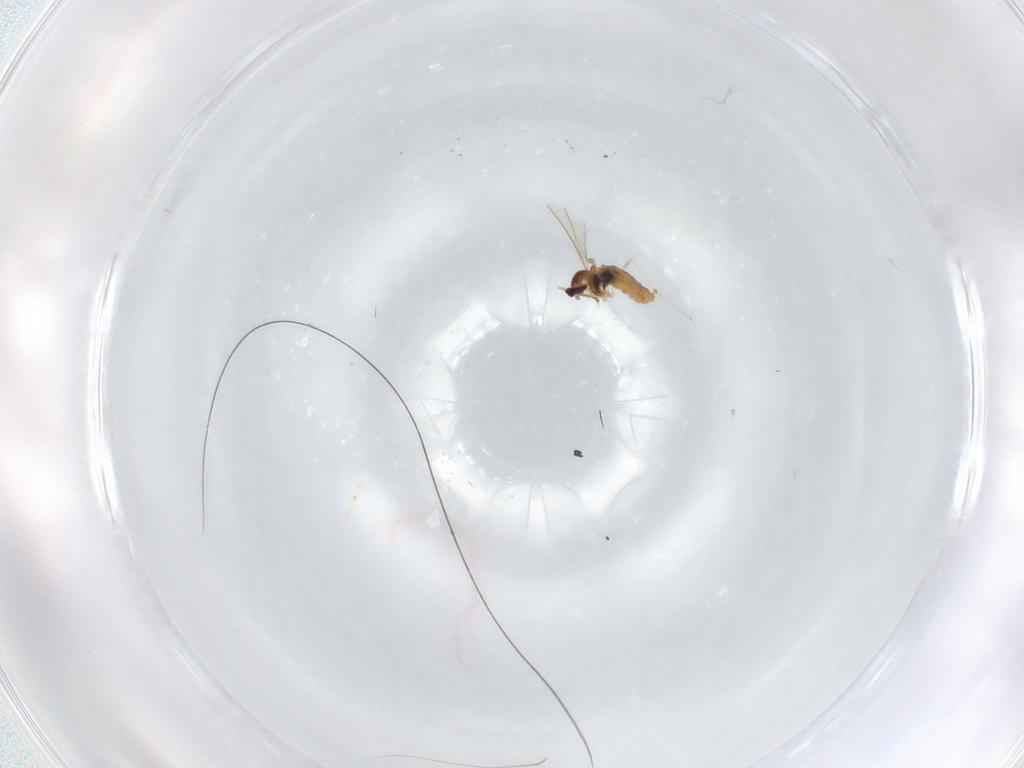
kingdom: Animalia
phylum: Arthropoda
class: Insecta
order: Diptera
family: Cecidomyiidae
